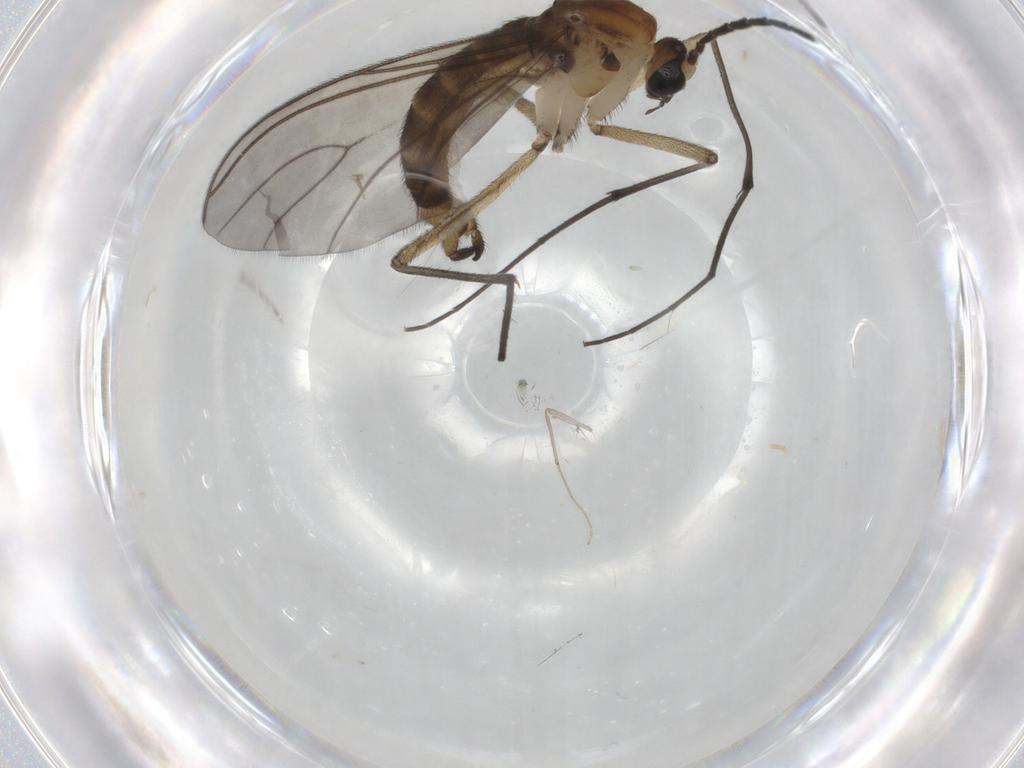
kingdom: Animalia
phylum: Arthropoda
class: Insecta
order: Diptera
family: Sciaridae
